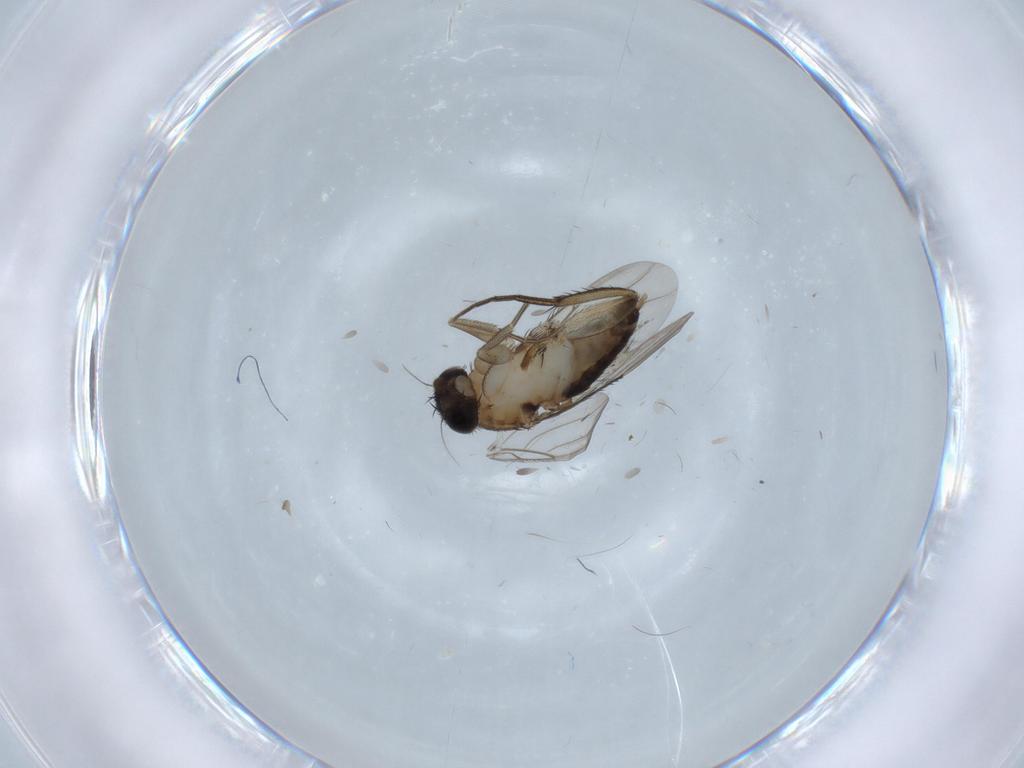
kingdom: Animalia
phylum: Arthropoda
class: Insecta
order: Diptera
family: Phoridae
